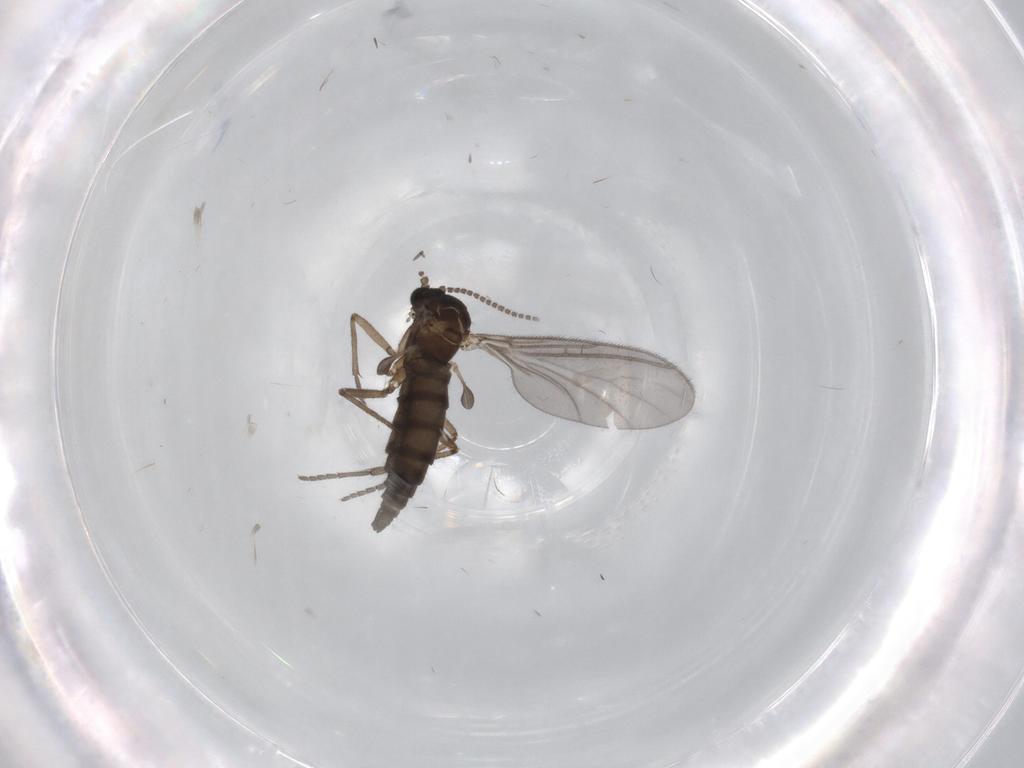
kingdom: Animalia
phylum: Arthropoda
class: Insecta
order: Diptera
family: Sciaridae
